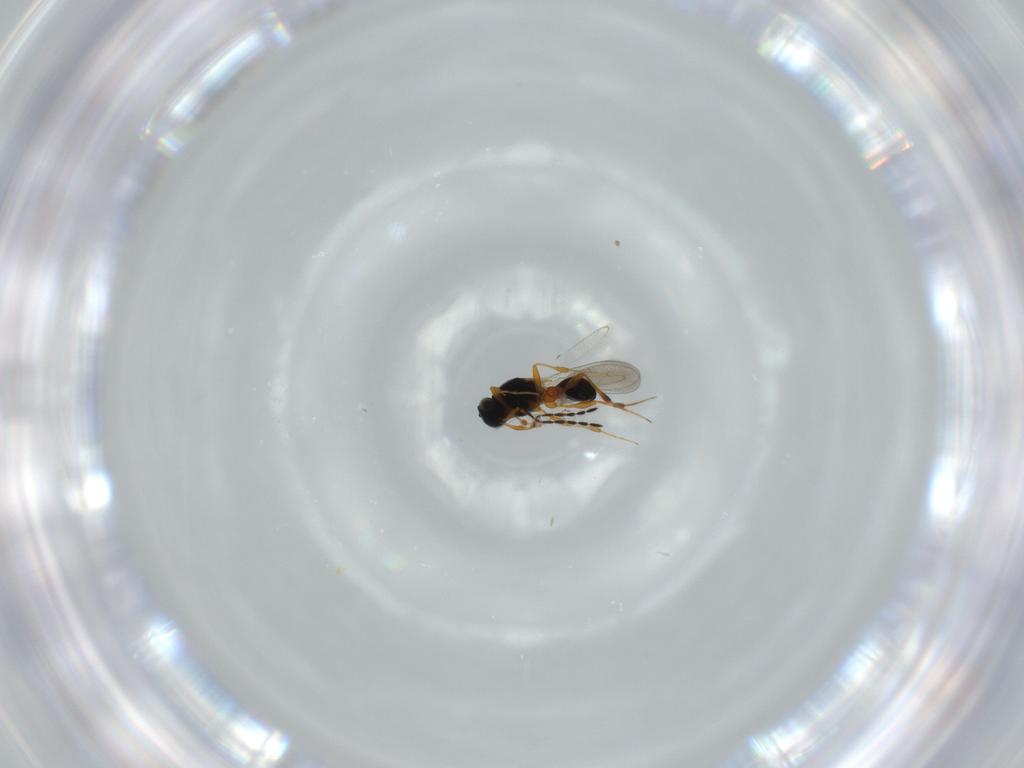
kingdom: Animalia
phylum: Arthropoda
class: Insecta
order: Hymenoptera
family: Platygastridae
